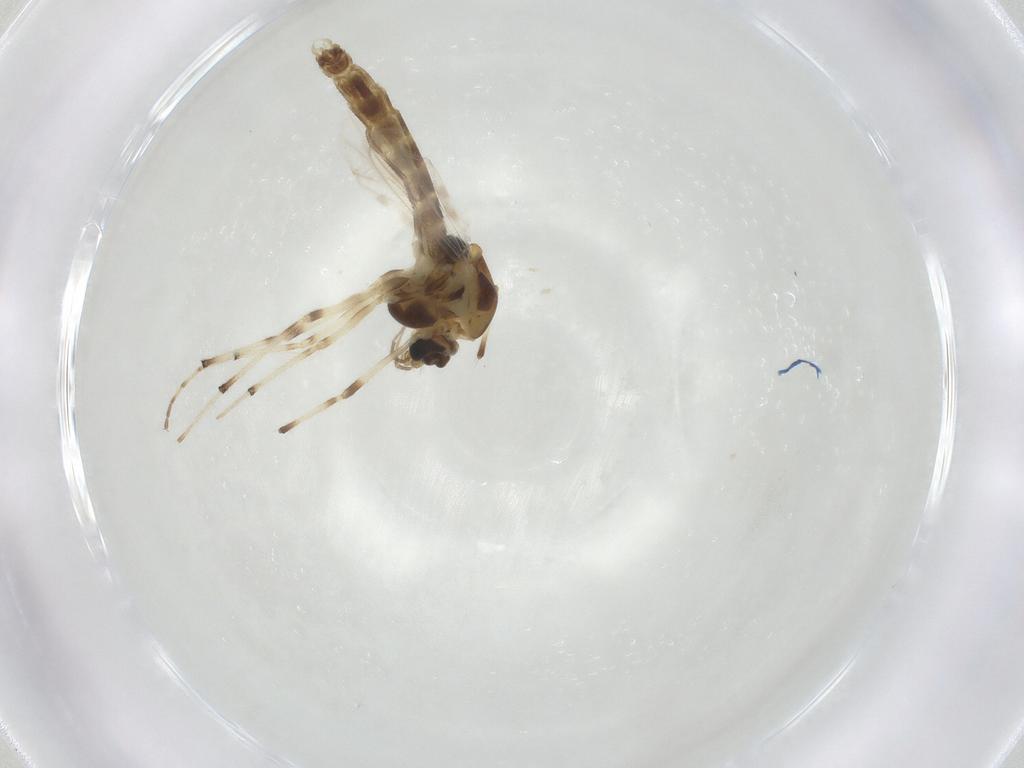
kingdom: Animalia
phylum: Arthropoda
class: Insecta
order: Diptera
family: Chironomidae
